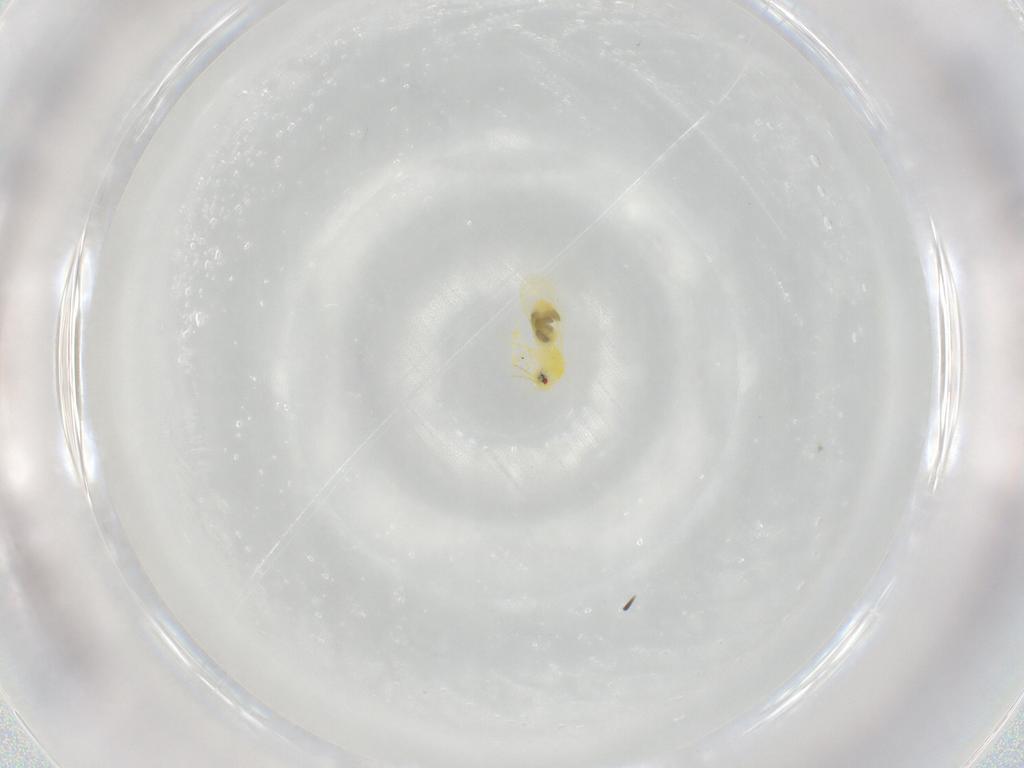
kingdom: Animalia
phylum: Arthropoda
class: Insecta
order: Hemiptera
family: Aleyrodidae
